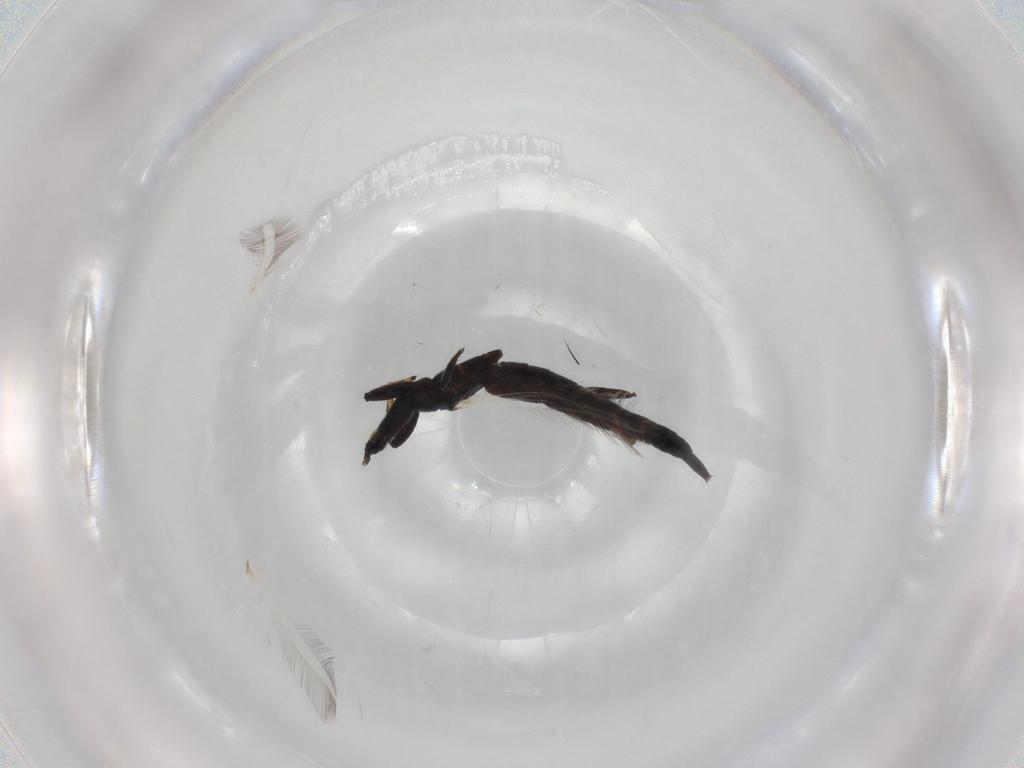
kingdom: Animalia
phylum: Arthropoda
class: Insecta
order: Thysanoptera
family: Phlaeothripidae
